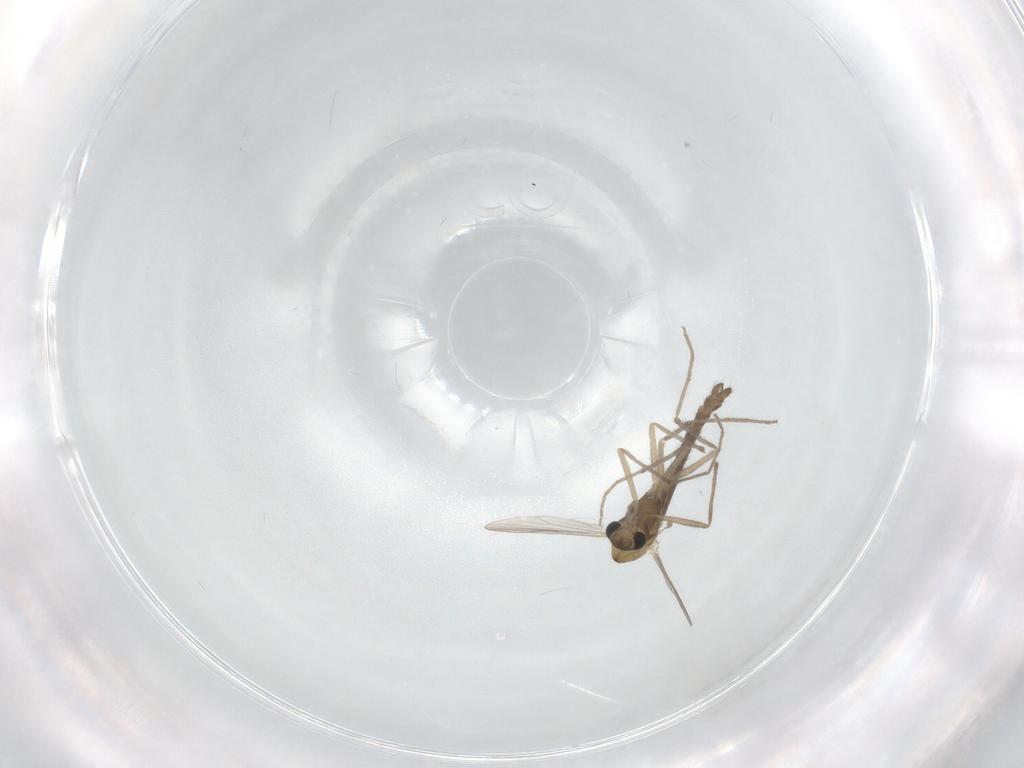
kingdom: Animalia
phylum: Arthropoda
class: Insecta
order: Diptera
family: Chironomidae
